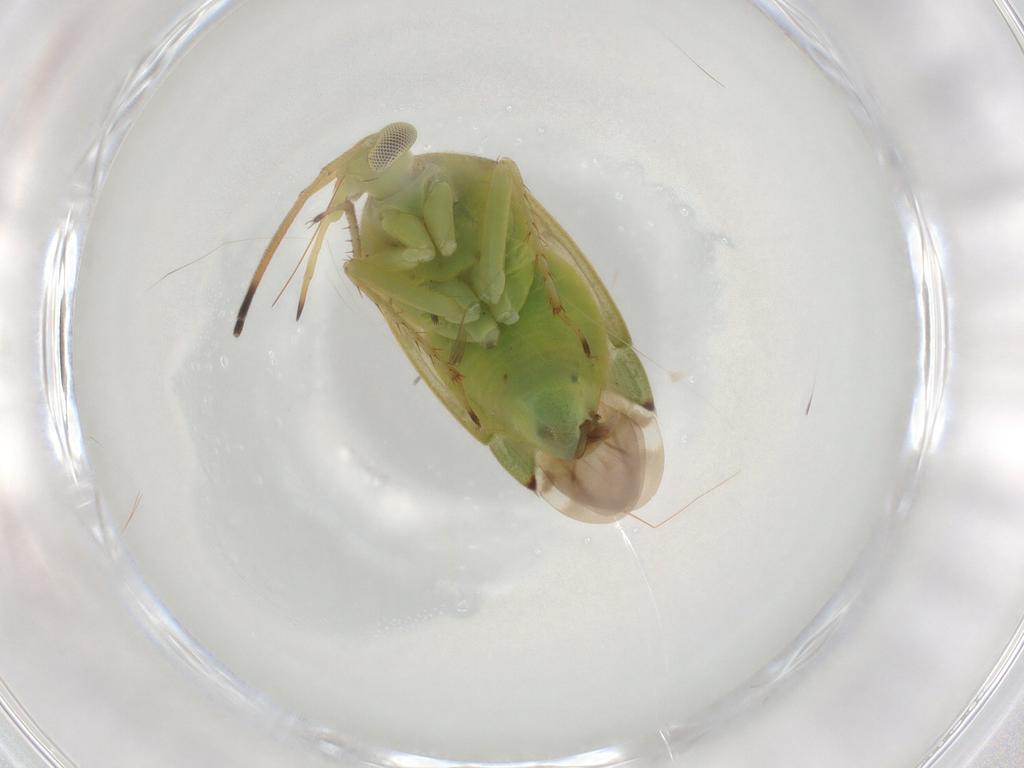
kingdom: Animalia
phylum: Arthropoda
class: Insecta
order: Hemiptera
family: Miridae
